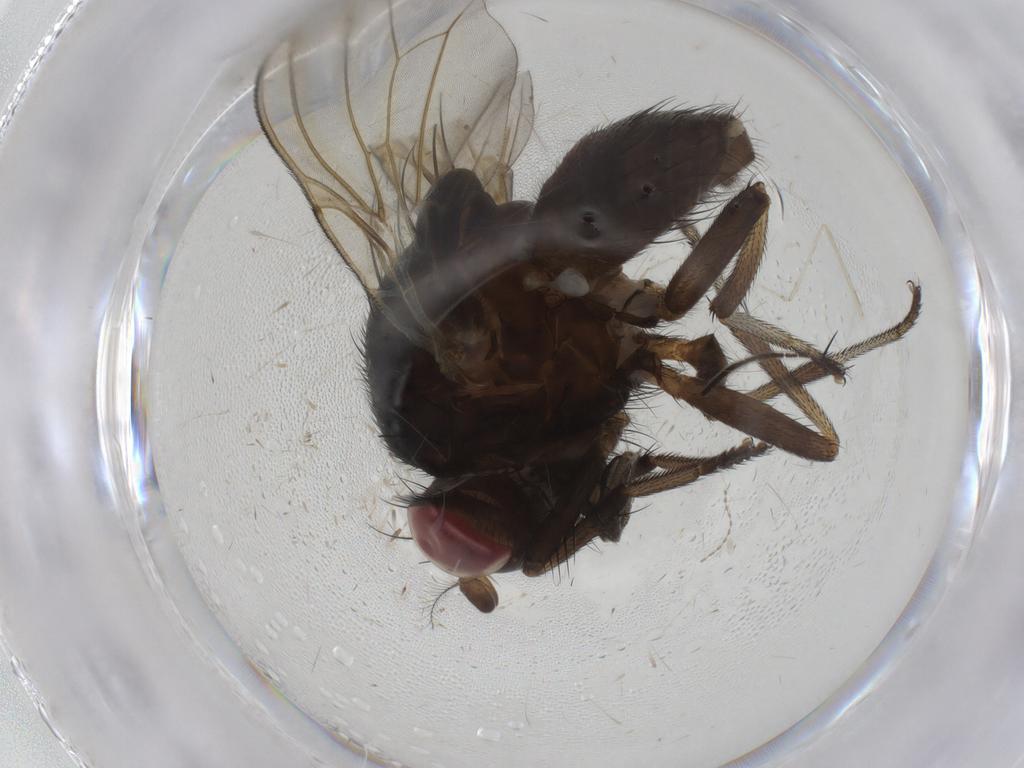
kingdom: Animalia
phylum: Arthropoda
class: Insecta
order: Diptera
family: Lauxaniidae
